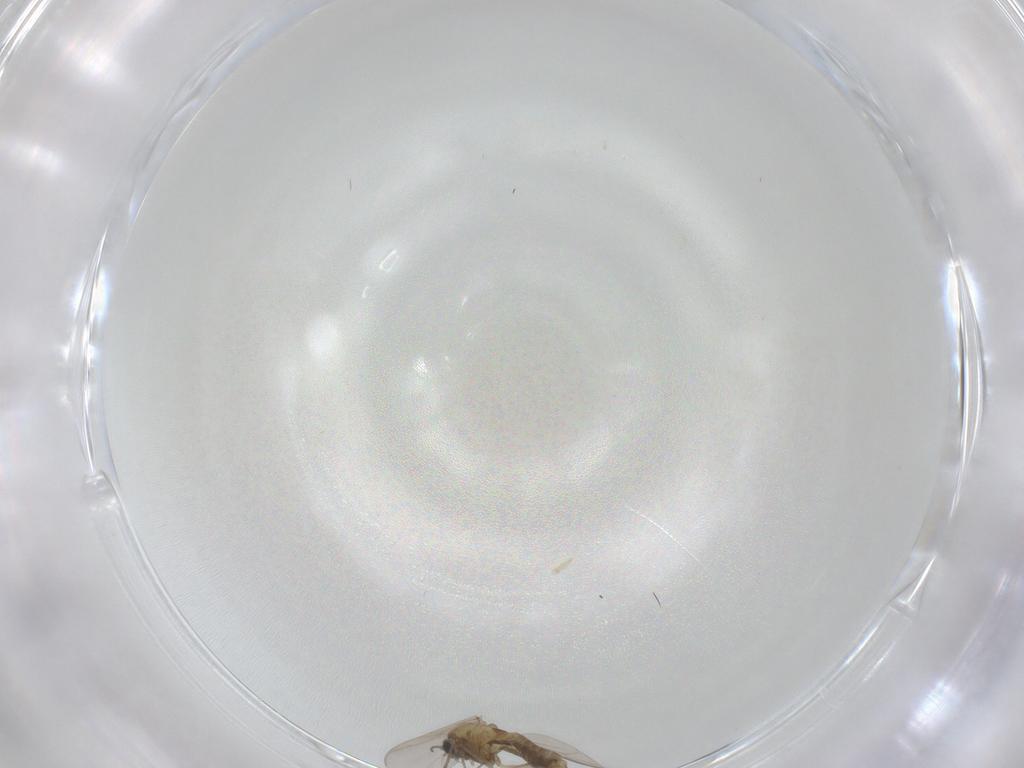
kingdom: Animalia
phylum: Arthropoda
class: Insecta
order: Diptera
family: Chironomidae
